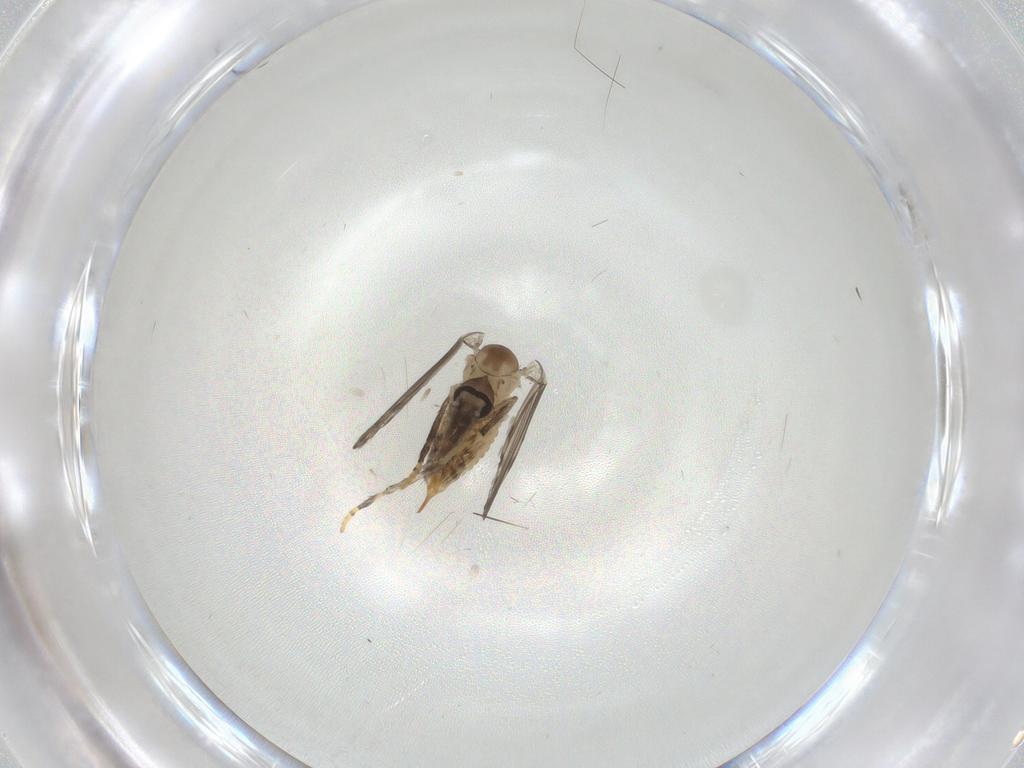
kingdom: Animalia
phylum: Arthropoda
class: Insecta
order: Diptera
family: Psychodidae
